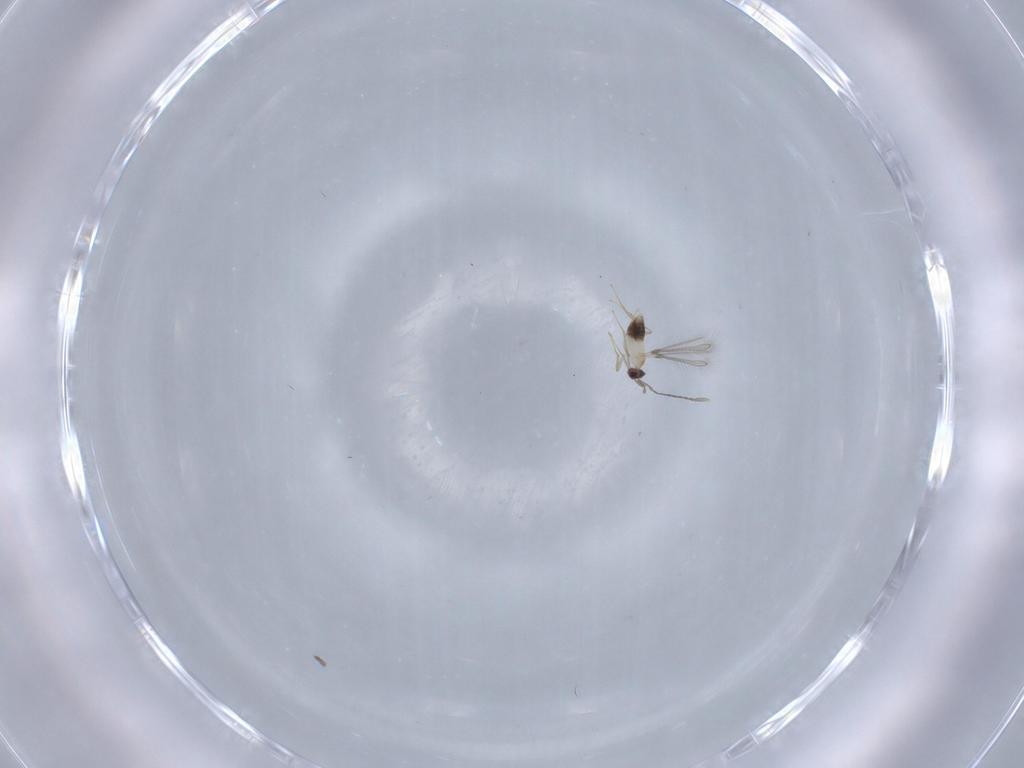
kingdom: Animalia
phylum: Arthropoda
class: Insecta
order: Hymenoptera
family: Mymaridae
